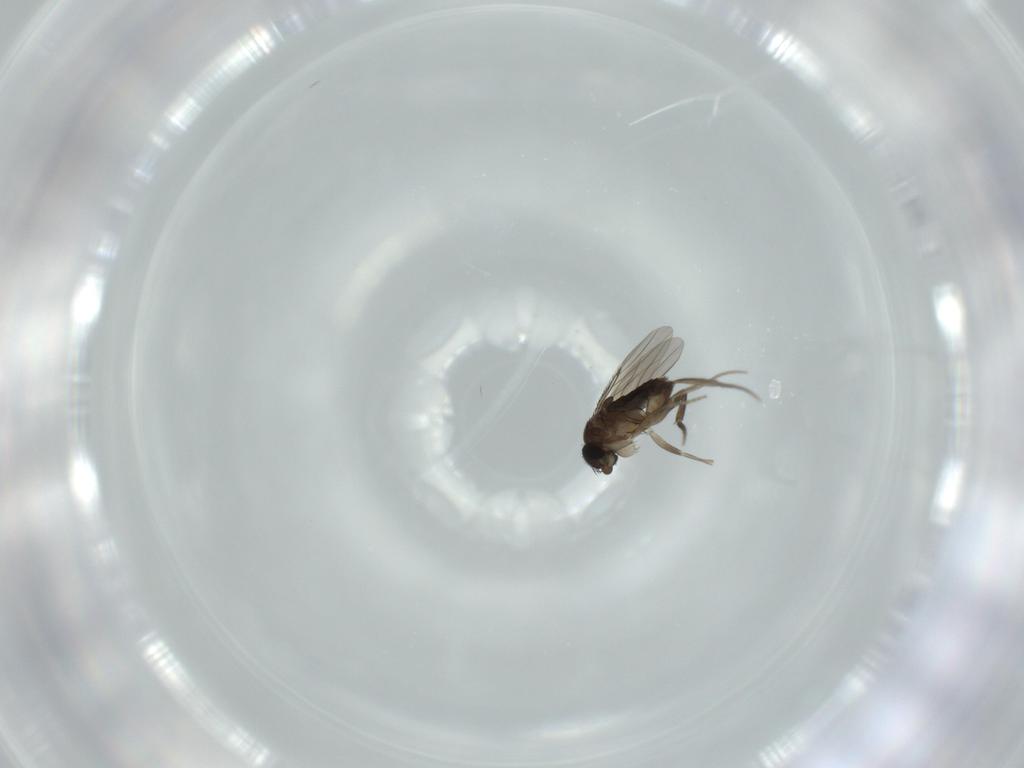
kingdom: Animalia
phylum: Arthropoda
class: Insecta
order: Diptera
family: Phoridae
